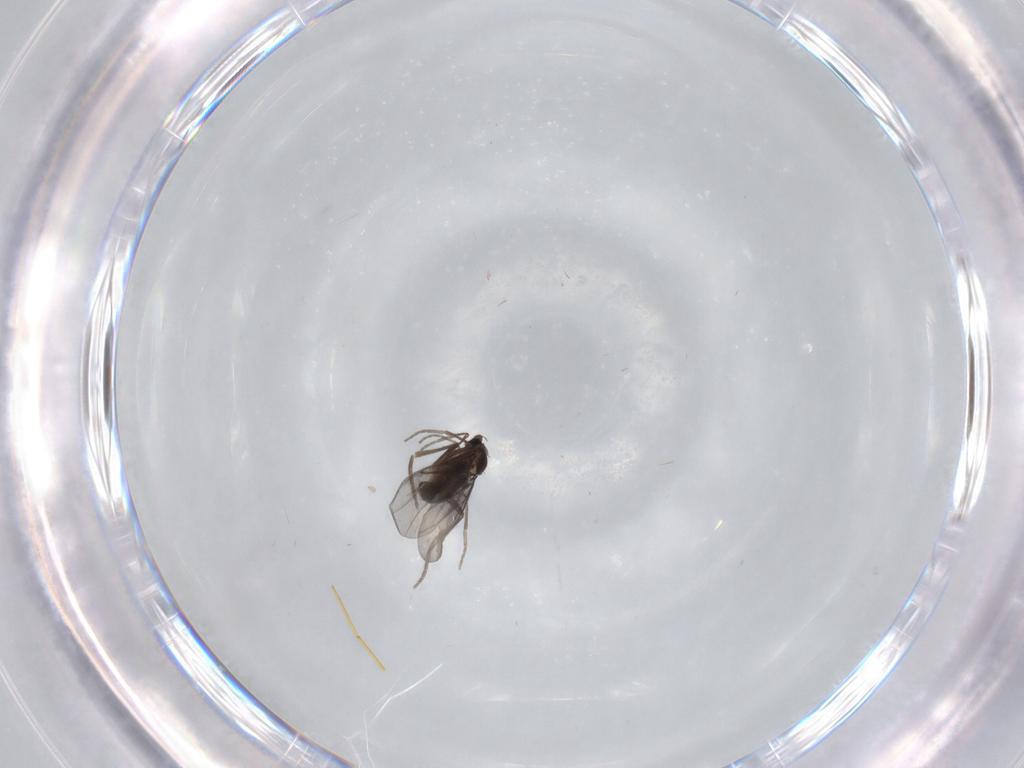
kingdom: Animalia
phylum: Arthropoda
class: Insecta
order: Diptera
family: Phoridae
